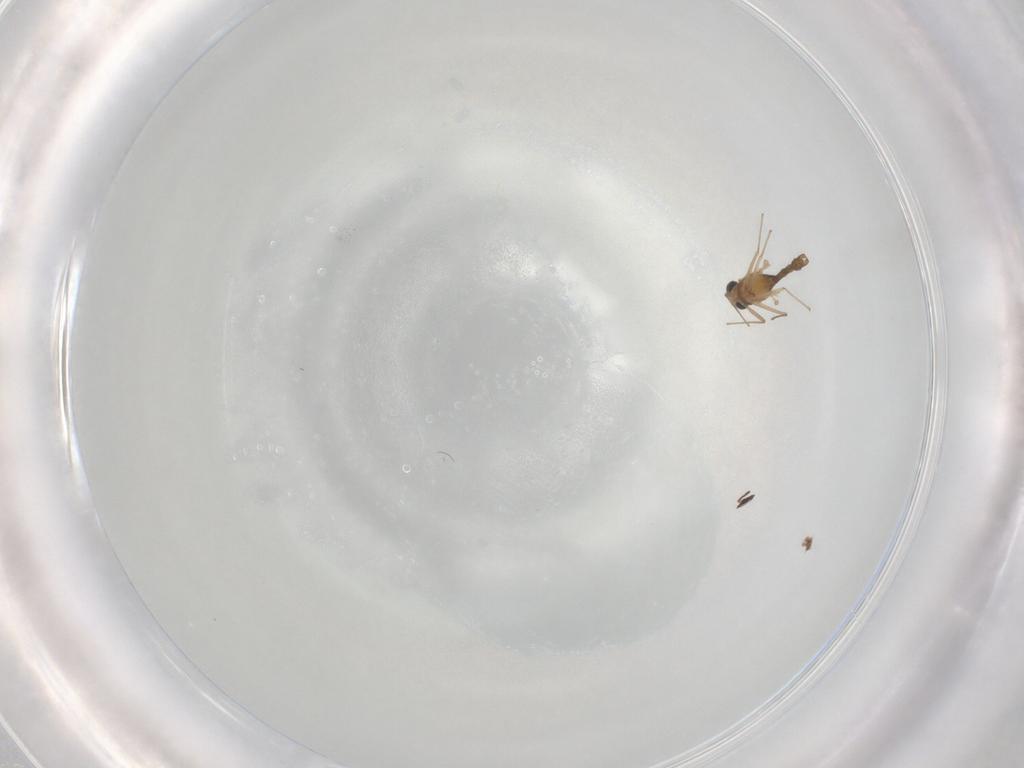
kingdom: Animalia
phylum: Arthropoda
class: Insecta
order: Diptera
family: Chironomidae
